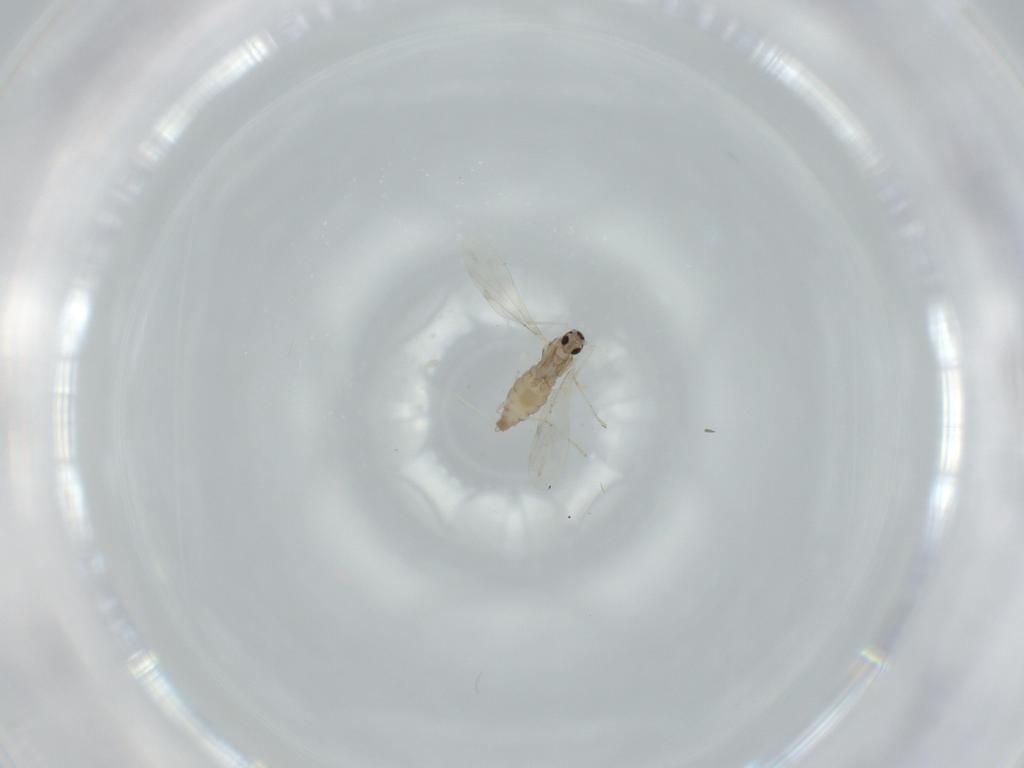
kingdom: Animalia
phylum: Arthropoda
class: Insecta
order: Diptera
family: Cecidomyiidae
